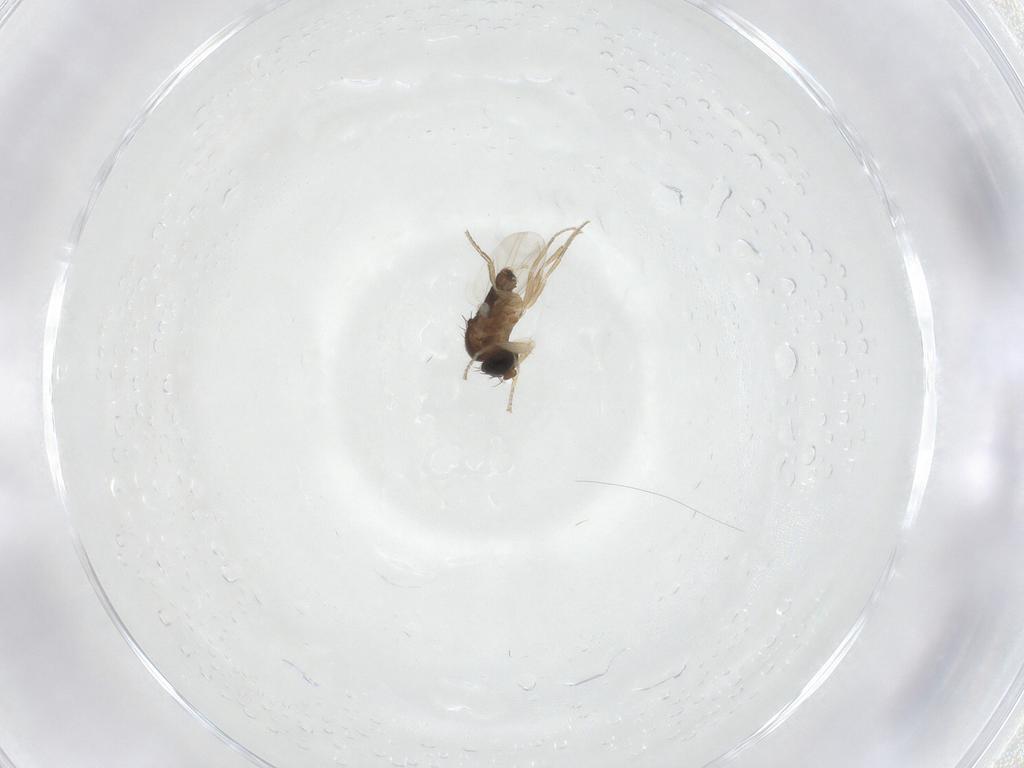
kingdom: Animalia
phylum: Arthropoda
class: Insecta
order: Diptera
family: Phoridae
